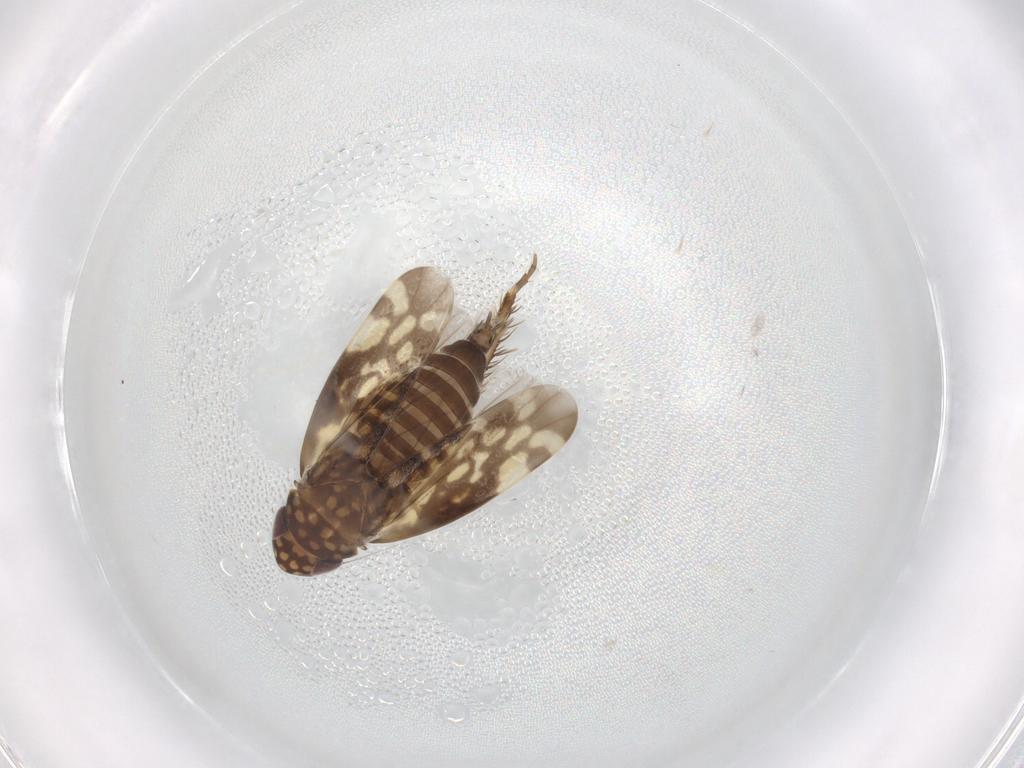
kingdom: Animalia
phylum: Arthropoda
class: Insecta
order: Hemiptera
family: Cicadellidae
